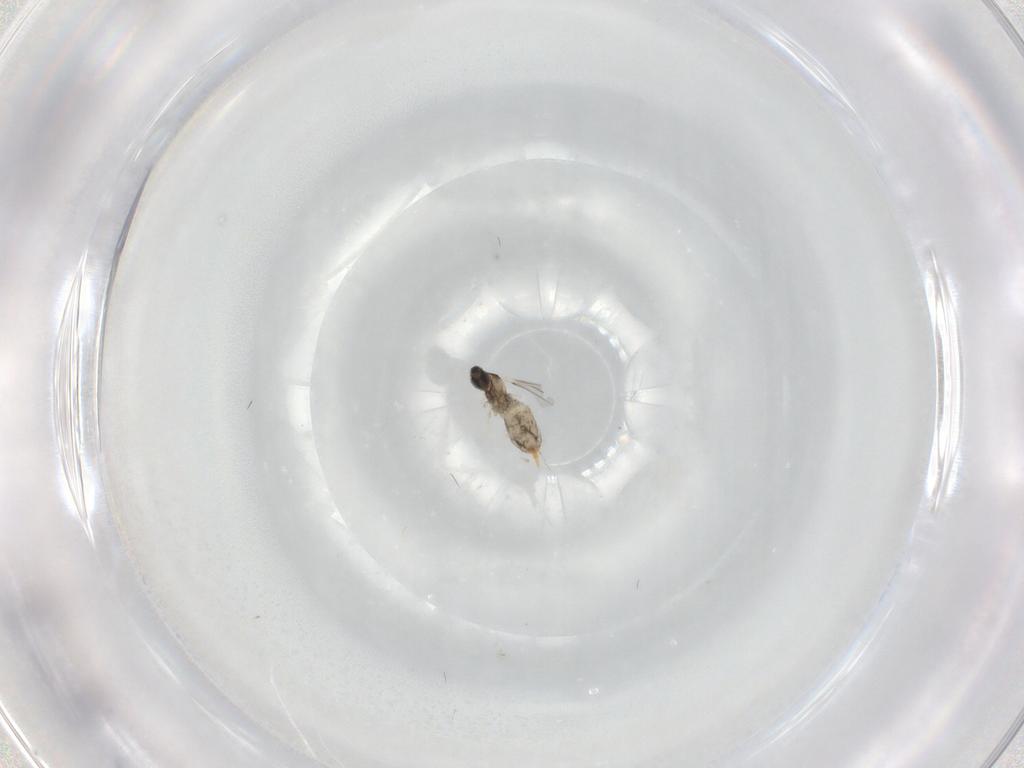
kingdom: Animalia
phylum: Arthropoda
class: Insecta
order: Diptera
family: Cecidomyiidae
